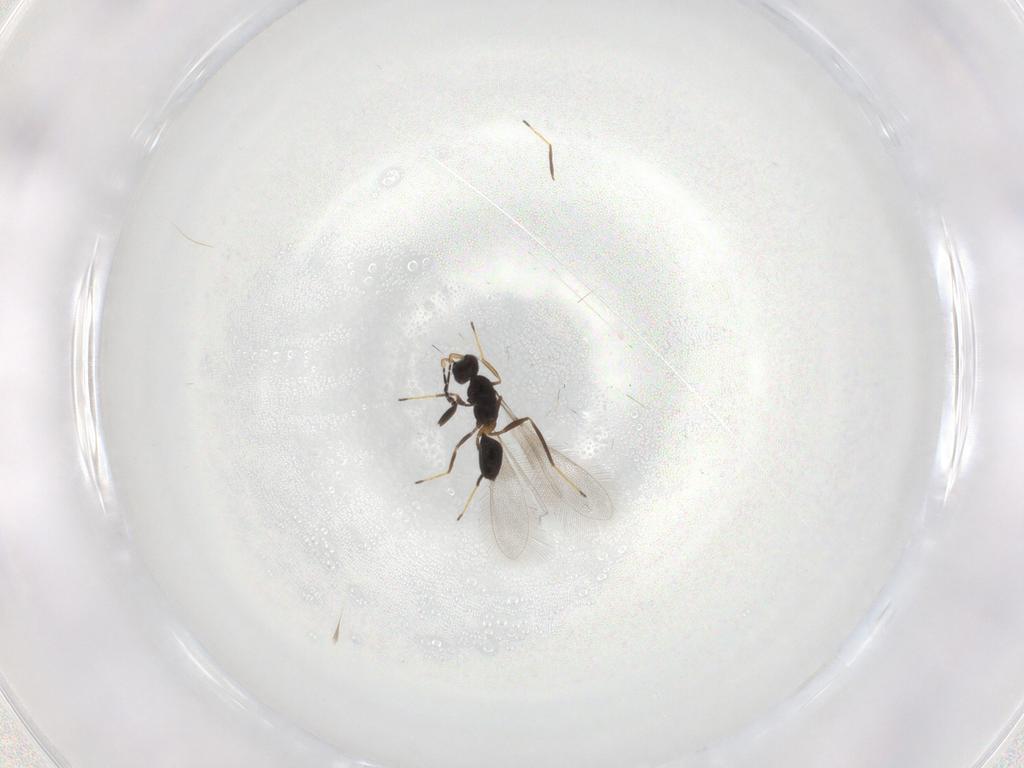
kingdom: Animalia
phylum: Arthropoda
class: Insecta
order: Hymenoptera
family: Mymaridae
